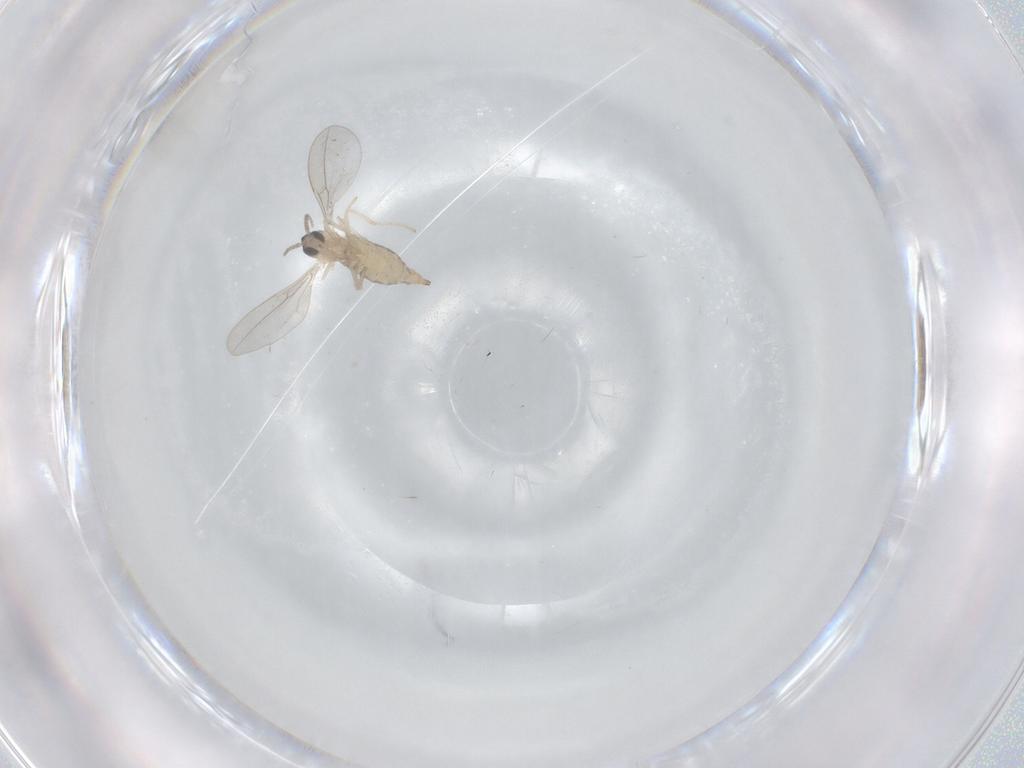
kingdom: Animalia
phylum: Arthropoda
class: Insecta
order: Diptera
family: Cecidomyiidae
